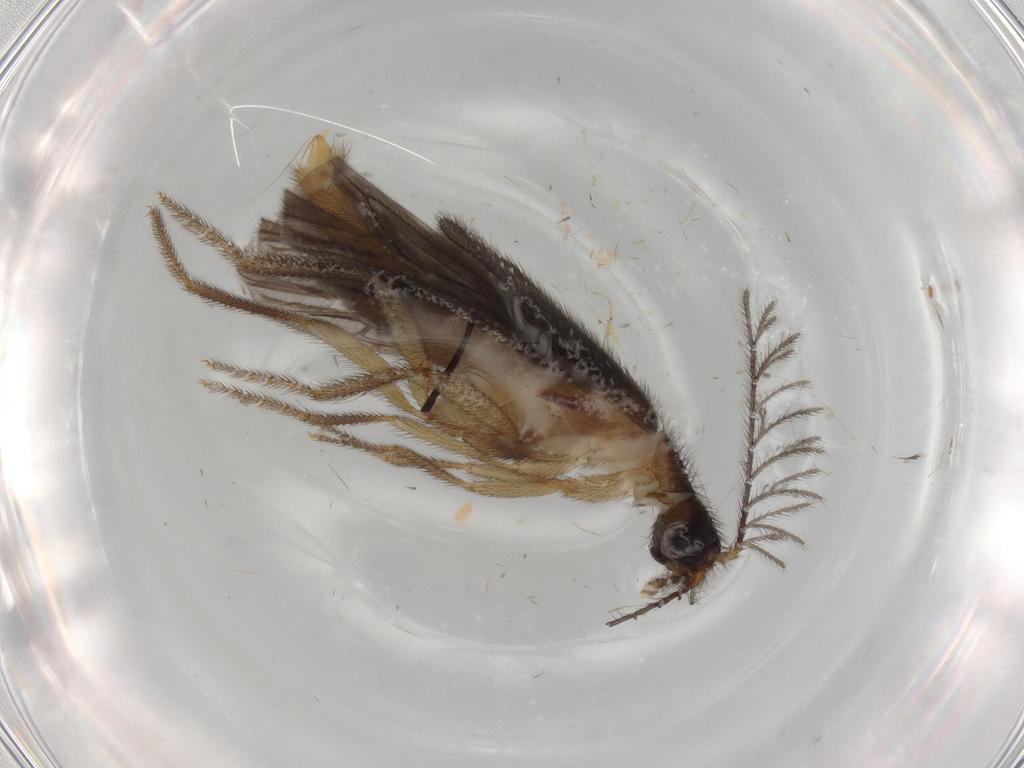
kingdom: Animalia
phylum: Arthropoda
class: Insecta
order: Coleoptera
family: Phengodidae
